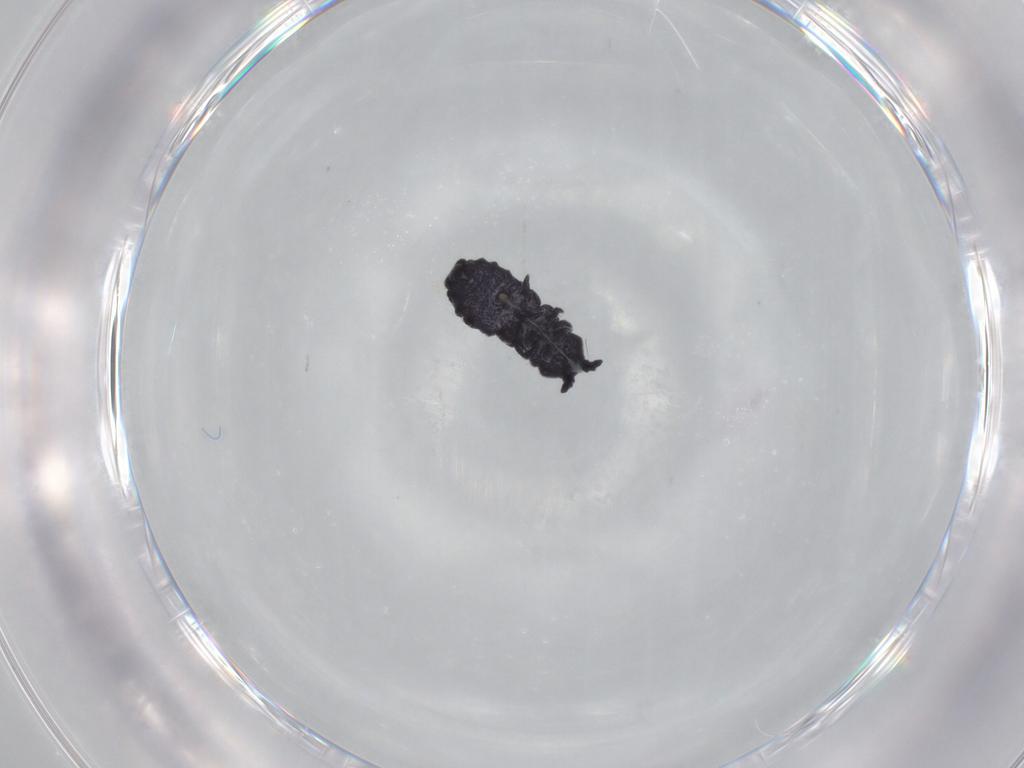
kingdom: Animalia
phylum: Arthropoda
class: Collembola
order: Poduromorpha
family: Neanuridae
